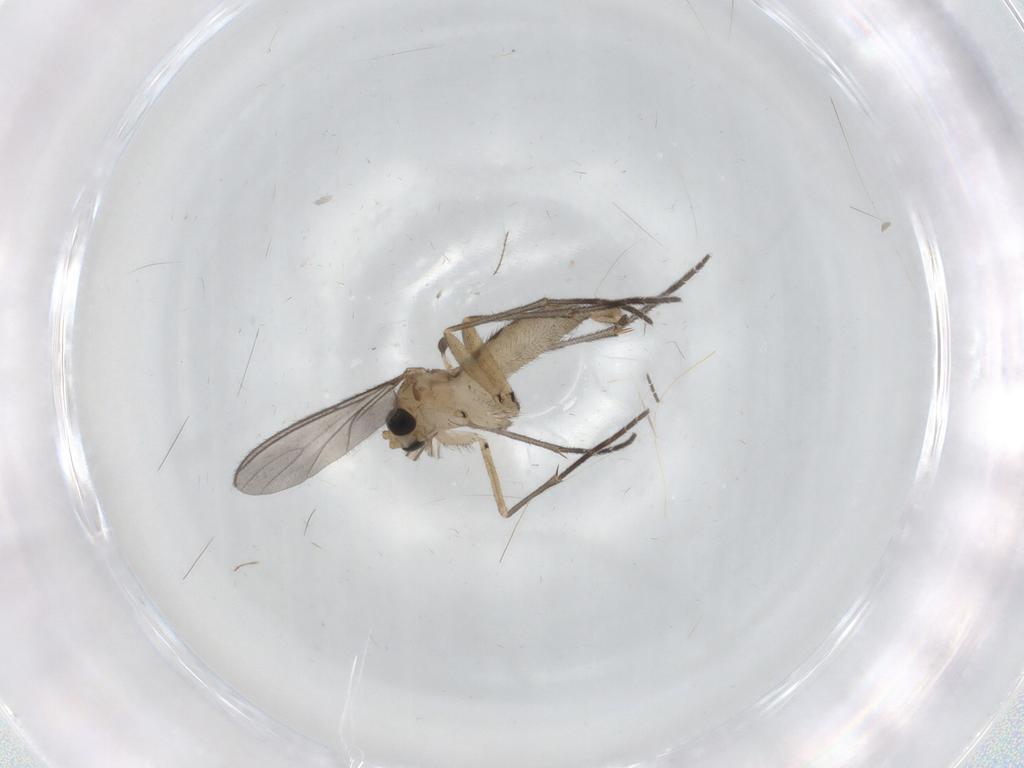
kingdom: Animalia
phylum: Arthropoda
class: Insecta
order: Diptera
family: Sciaridae
